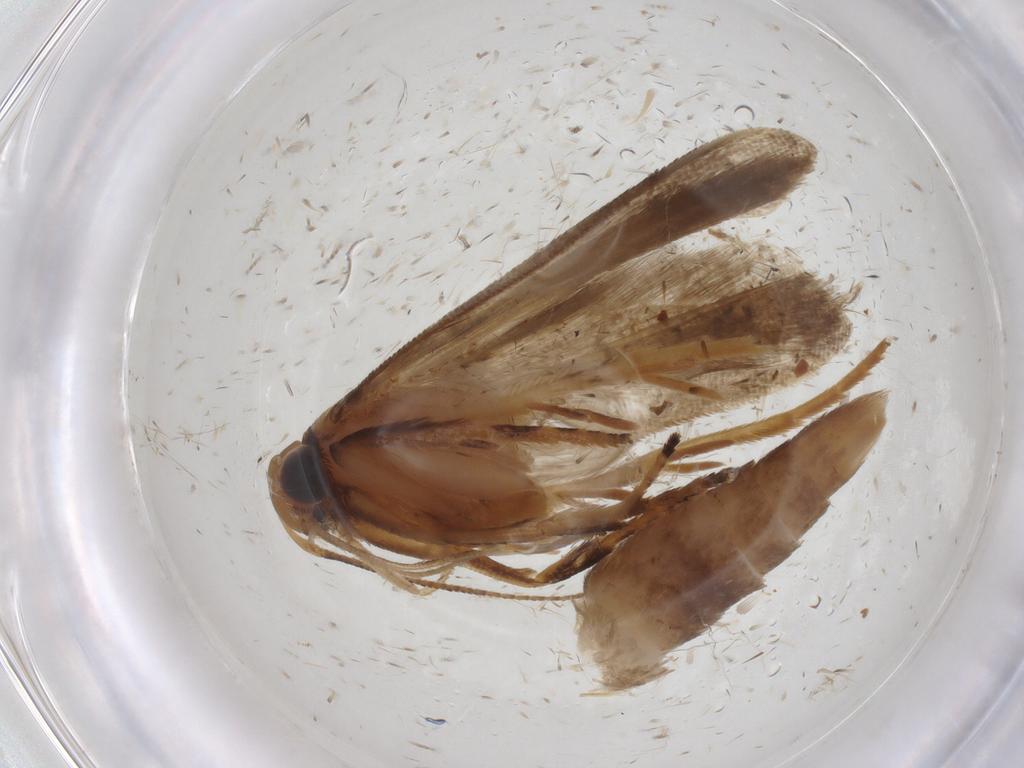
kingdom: Animalia
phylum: Arthropoda
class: Insecta
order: Lepidoptera
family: Gelechiidae
